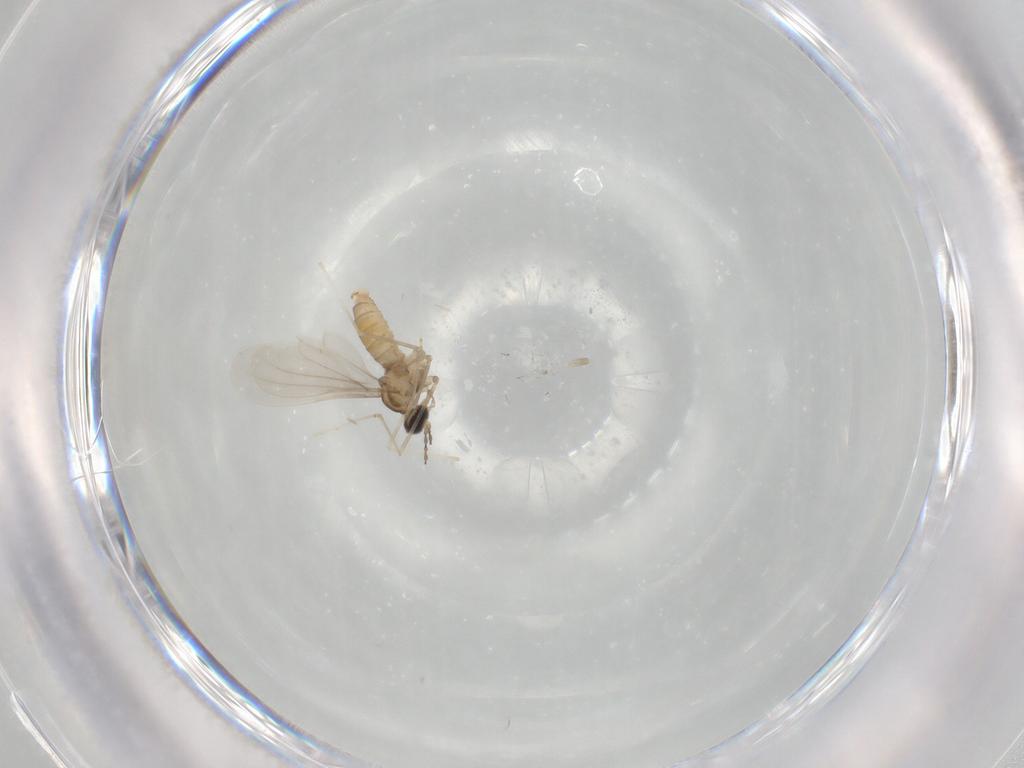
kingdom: Animalia
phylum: Arthropoda
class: Insecta
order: Diptera
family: Cecidomyiidae
